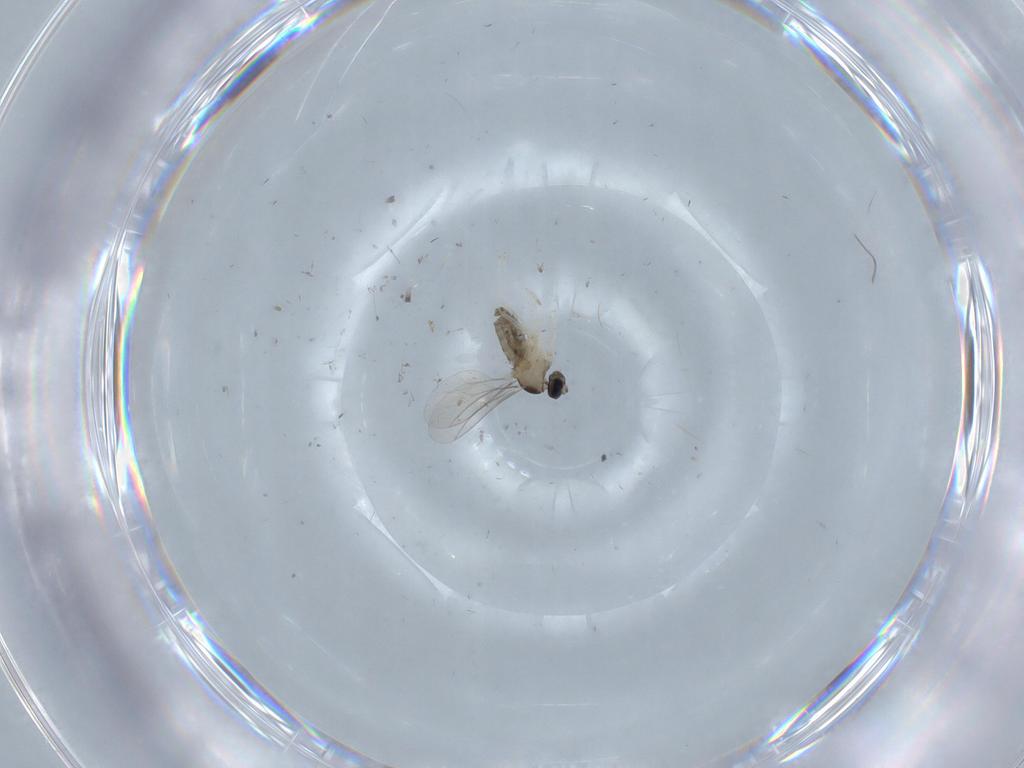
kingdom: Animalia
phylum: Arthropoda
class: Insecta
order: Diptera
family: Cecidomyiidae
